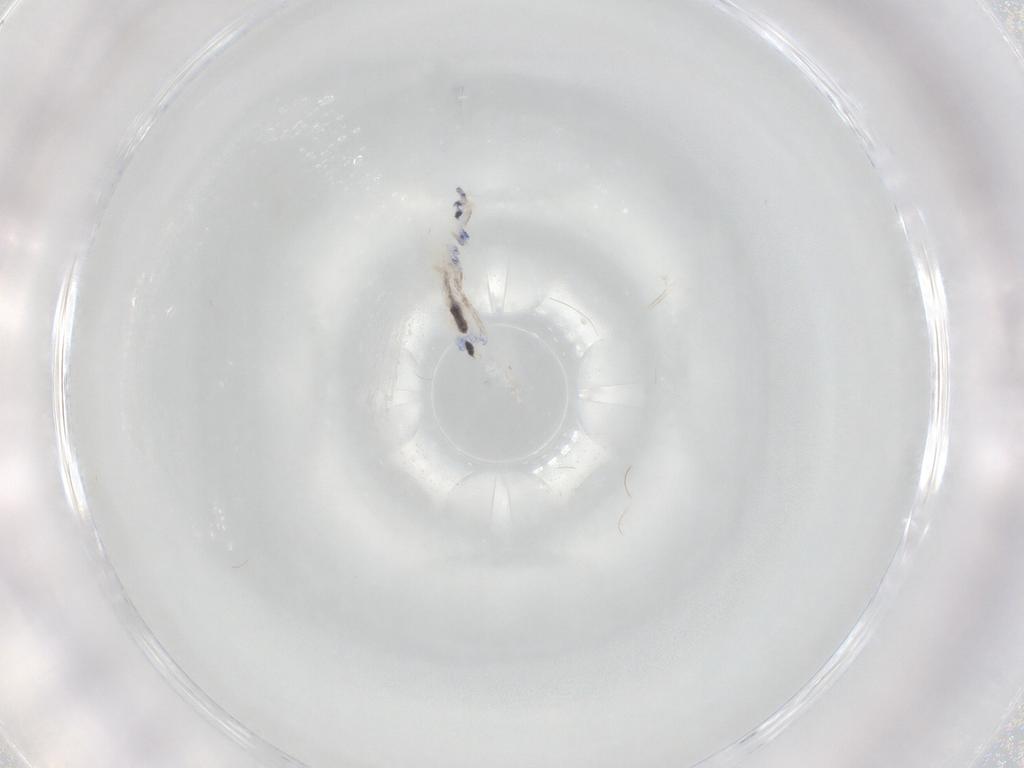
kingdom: Animalia
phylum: Arthropoda
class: Collembola
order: Entomobryomorpha
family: Entomobryidae
